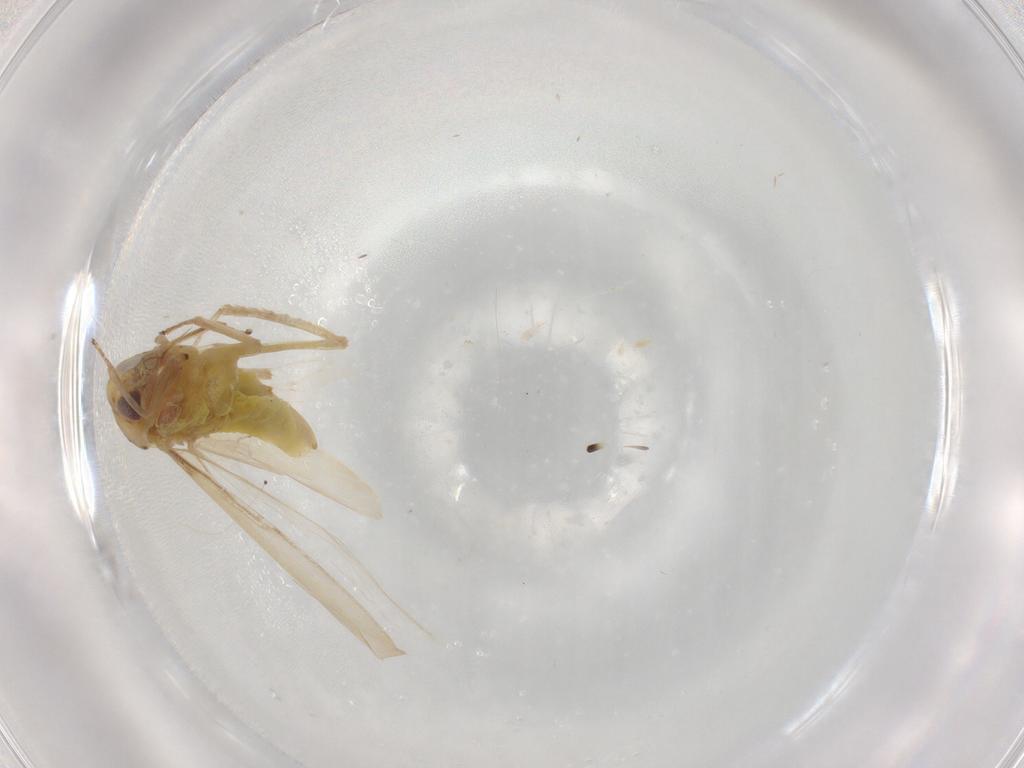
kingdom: Animalia
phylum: Arthropoda
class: Insecta
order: Hemiptera
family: Cicadellidae
